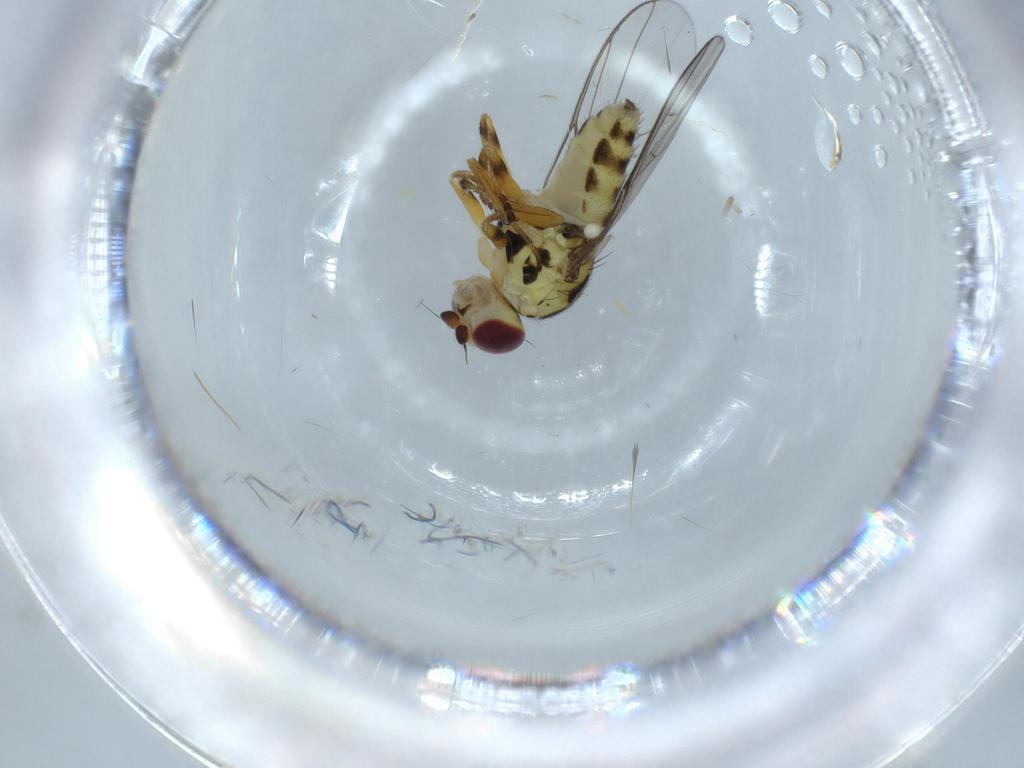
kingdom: Animalia
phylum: Arthropoda
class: Insecta
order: Diptera
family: Chloropidae
